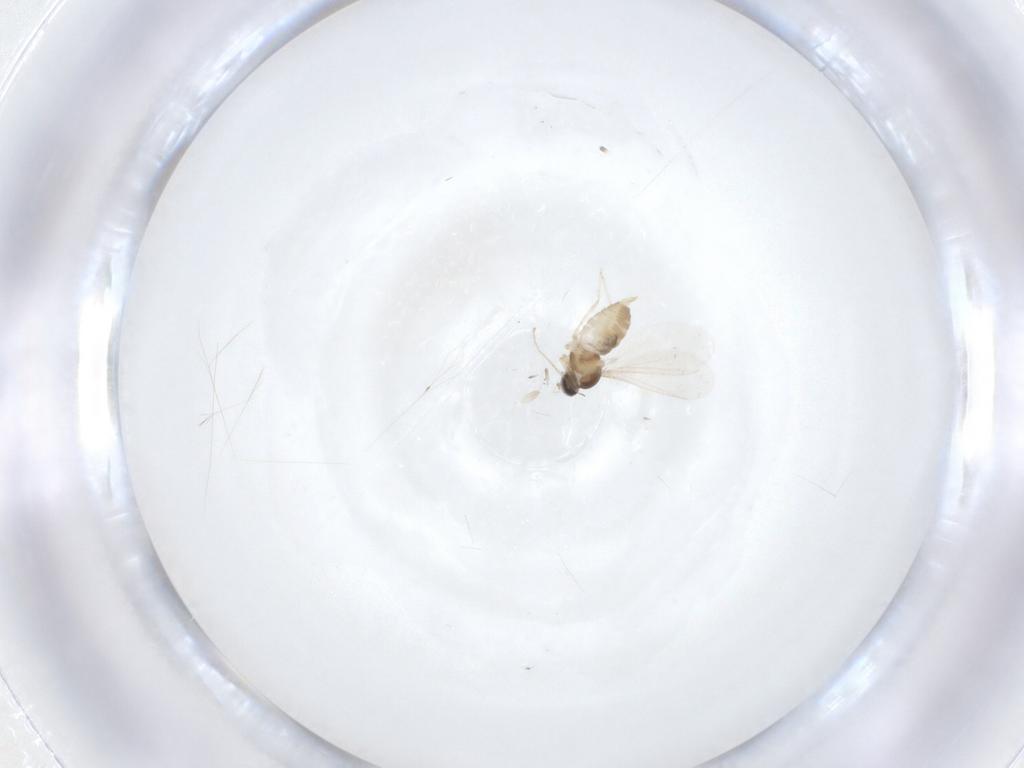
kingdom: Animalia
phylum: Arthropoda
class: Insecta
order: Diptera
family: Cecidomyiidae
